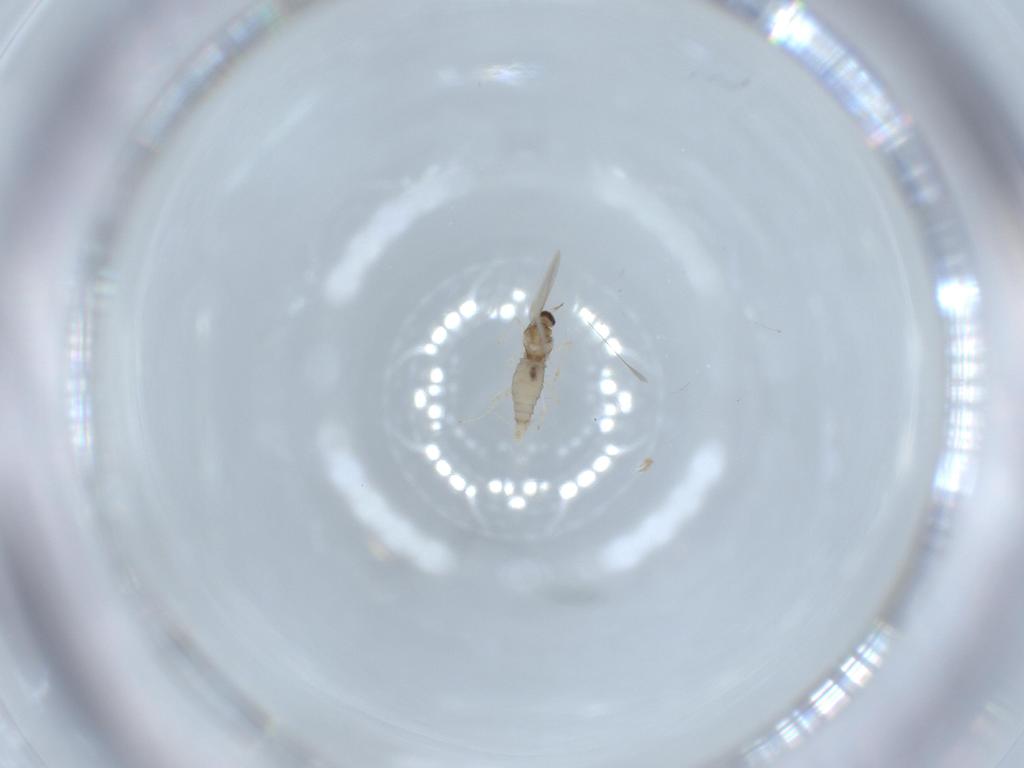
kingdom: Animalia
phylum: Arthropoda
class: Insecta
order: Diptera
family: Cecidomyiidae
